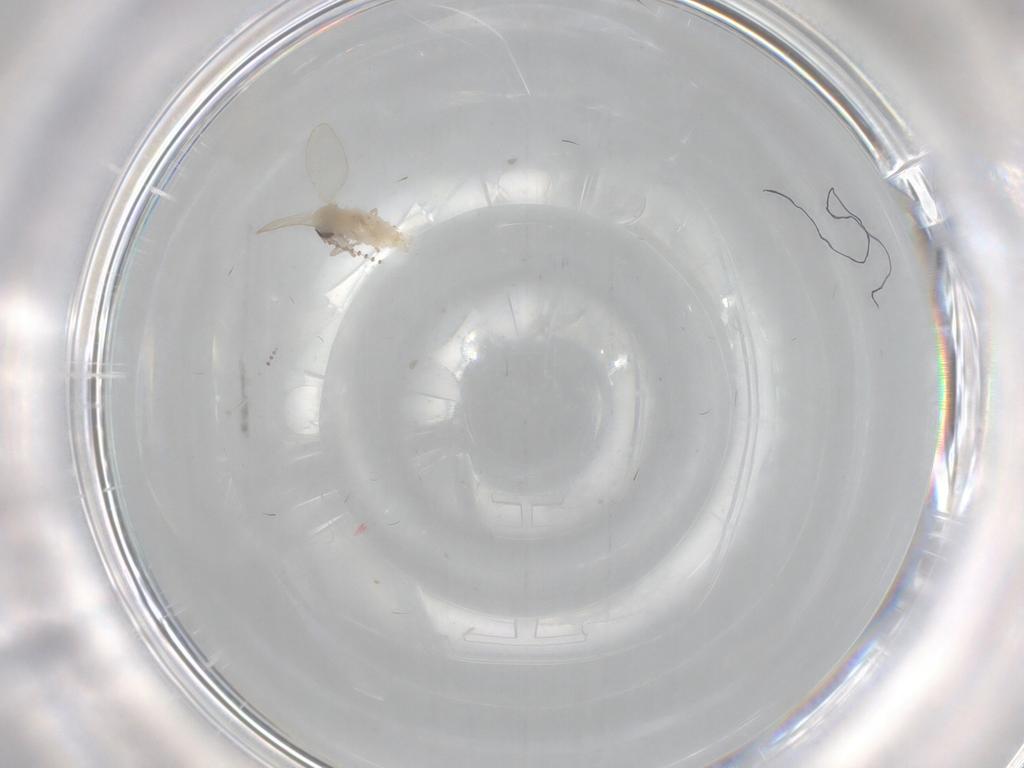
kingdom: Animalia
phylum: Arthropoda
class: Insecta
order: Diptera
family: Psychodidae
